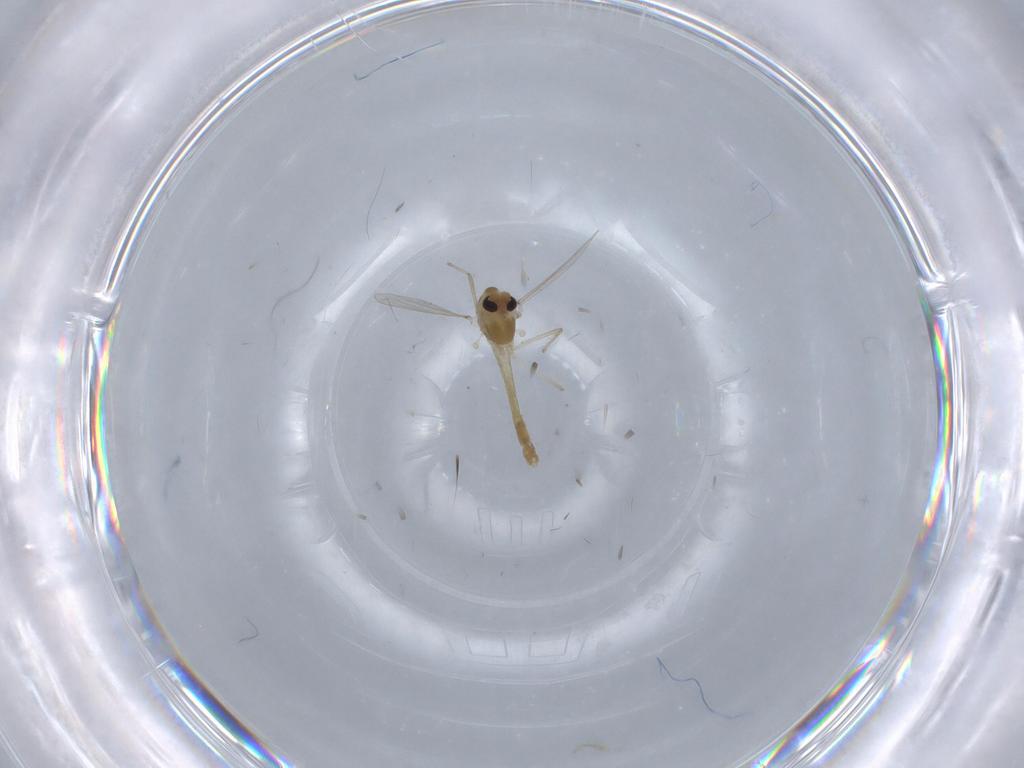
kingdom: Animalia
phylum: Arthropoda
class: Insecta
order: Diptera
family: Chironomidae
